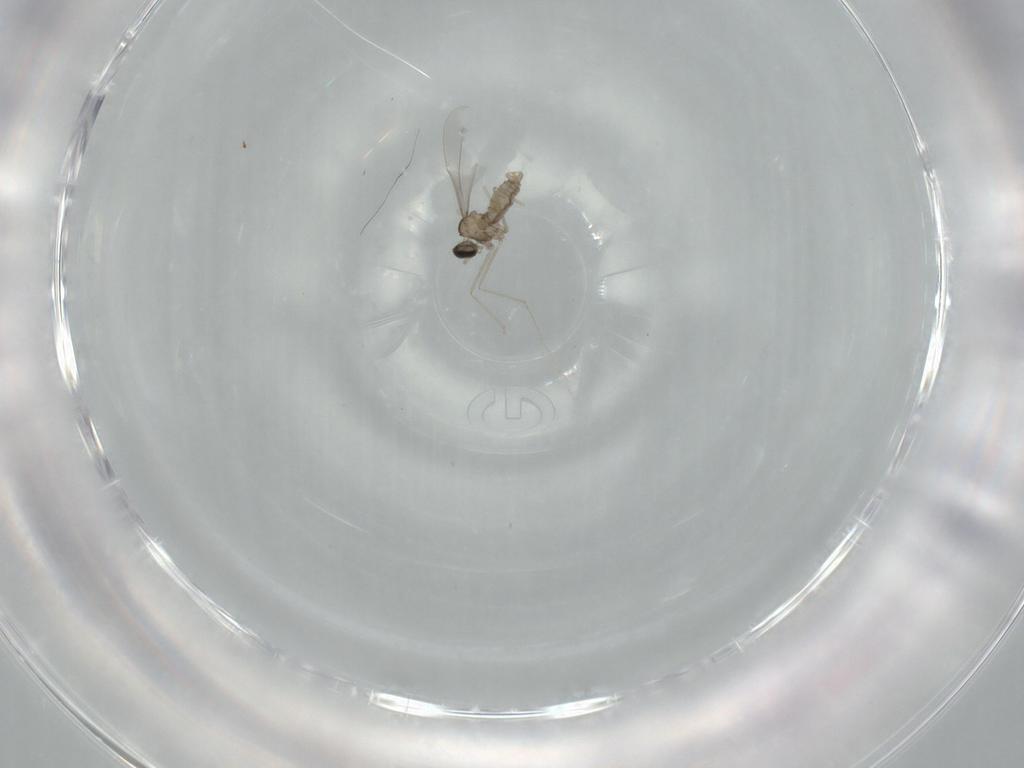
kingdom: Animalia
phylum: Arthropoda
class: Insecta
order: Diptera
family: Cecidomyiidae
